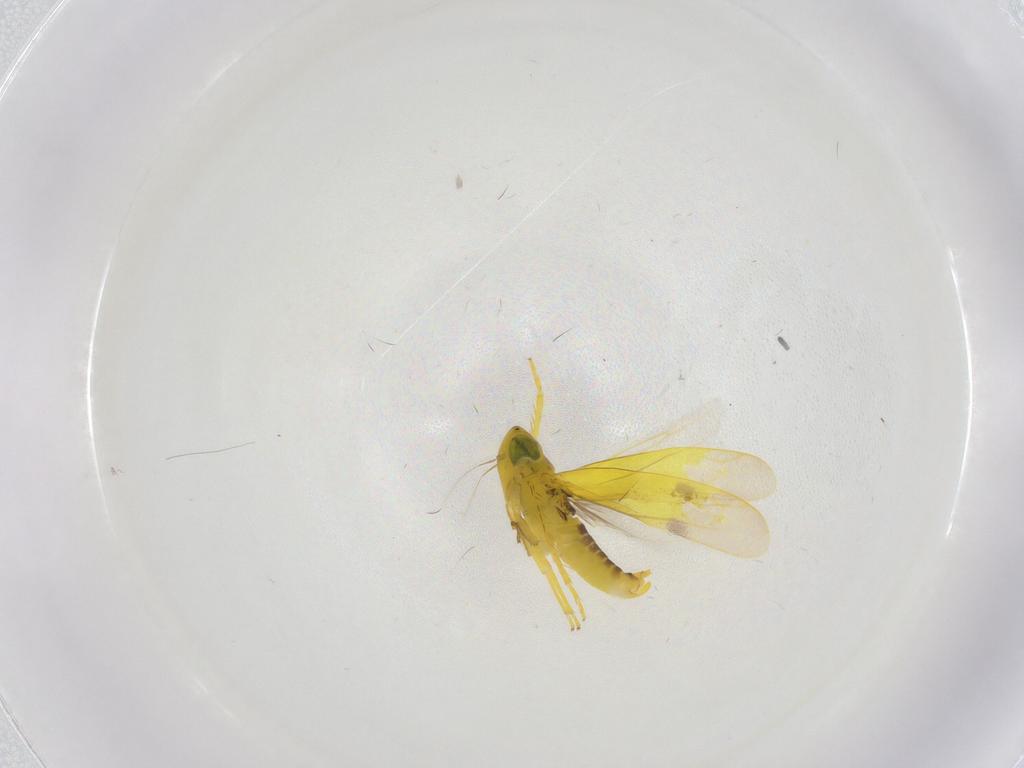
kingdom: Animalia
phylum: Arthropoda
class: Insecta
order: Hemiptera
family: Cicadellidae
